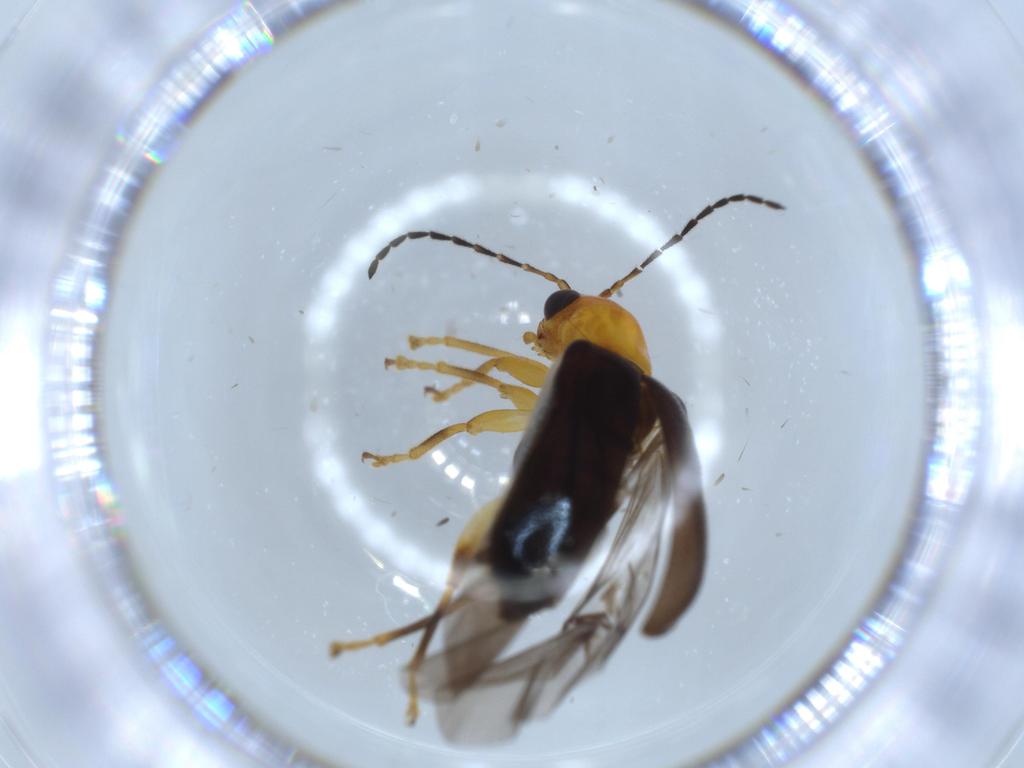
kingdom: Animalia
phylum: Arthropoda
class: Insecta
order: Coleoptera
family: Chrysomelidae
